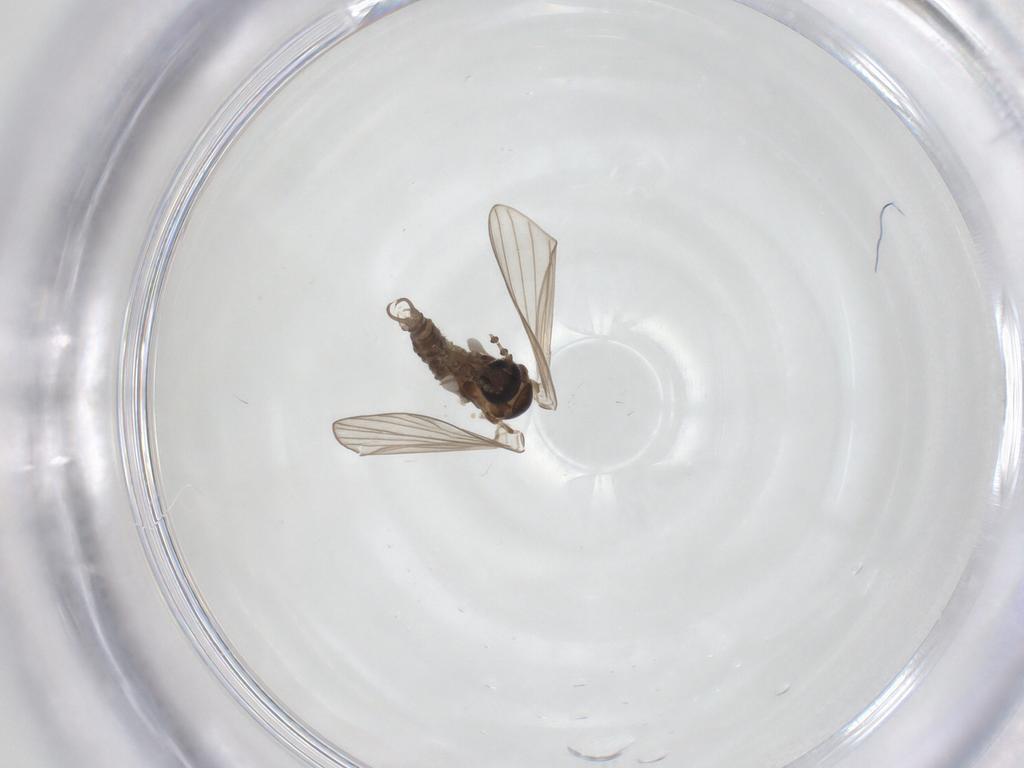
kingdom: Animalia
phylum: Arthropoda
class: Insecta
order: Diptera
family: Psychodidae
